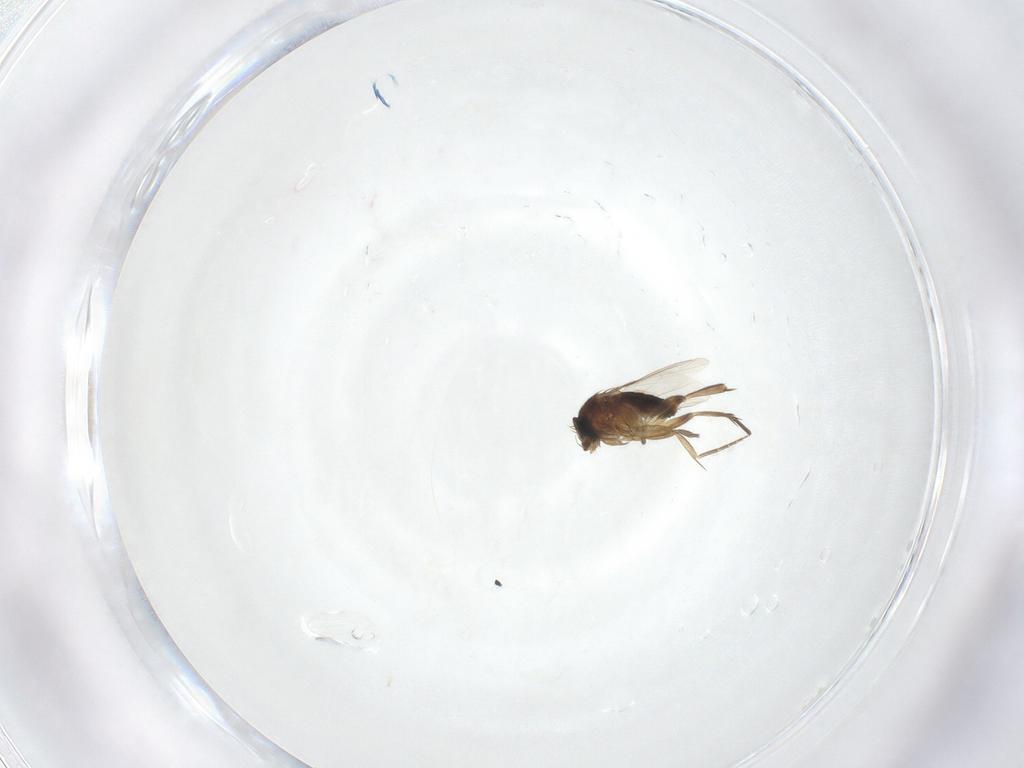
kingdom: Animalia
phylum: Arthropoda
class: Insecta
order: Diptera
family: Phoridae
